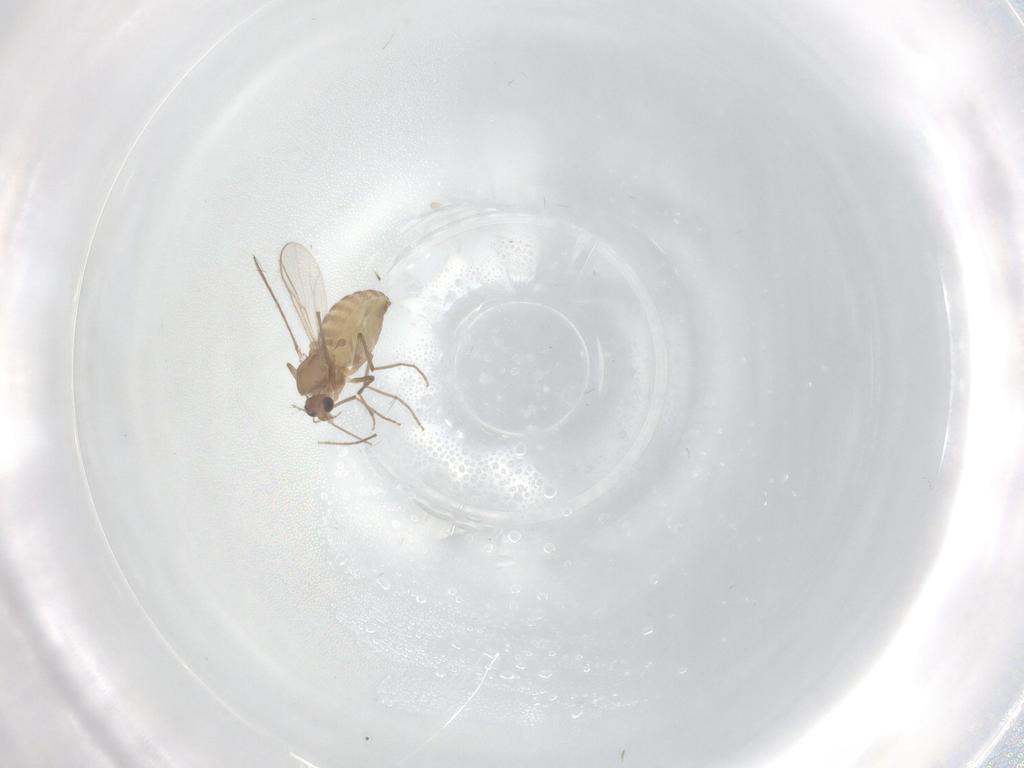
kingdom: Animalia
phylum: Arthropoda
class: Insecta
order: Diptera
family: Chironomidae
